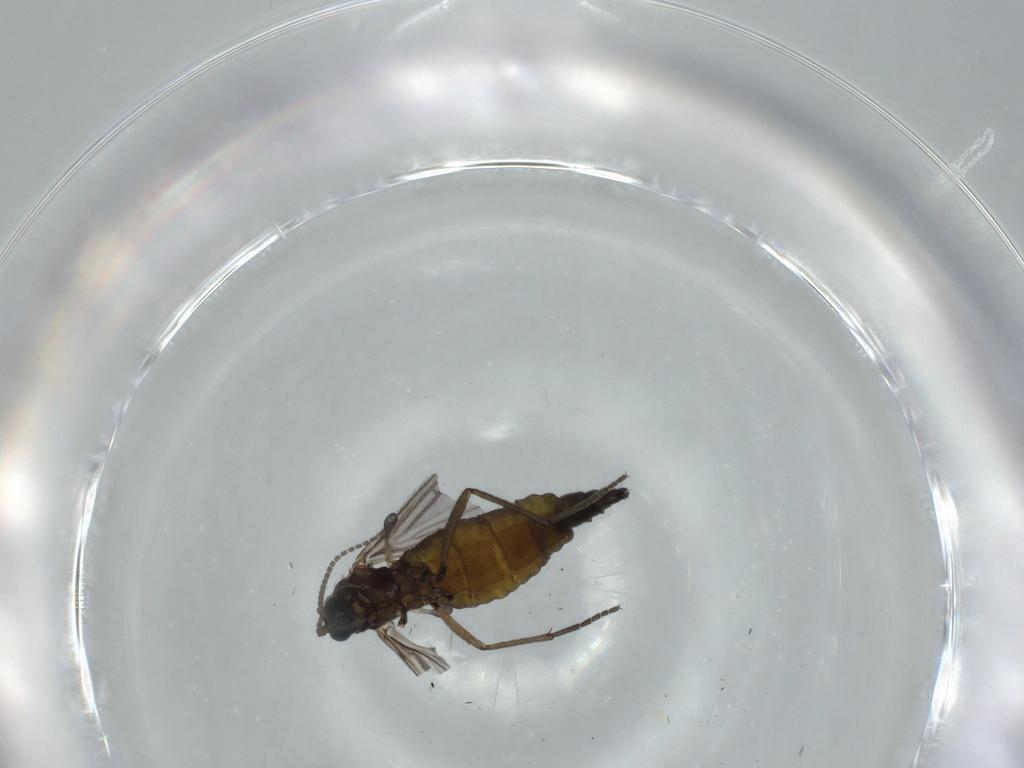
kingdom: Animalia
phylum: Arthropoda
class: Insecta
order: Diptera
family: Sciaridae
